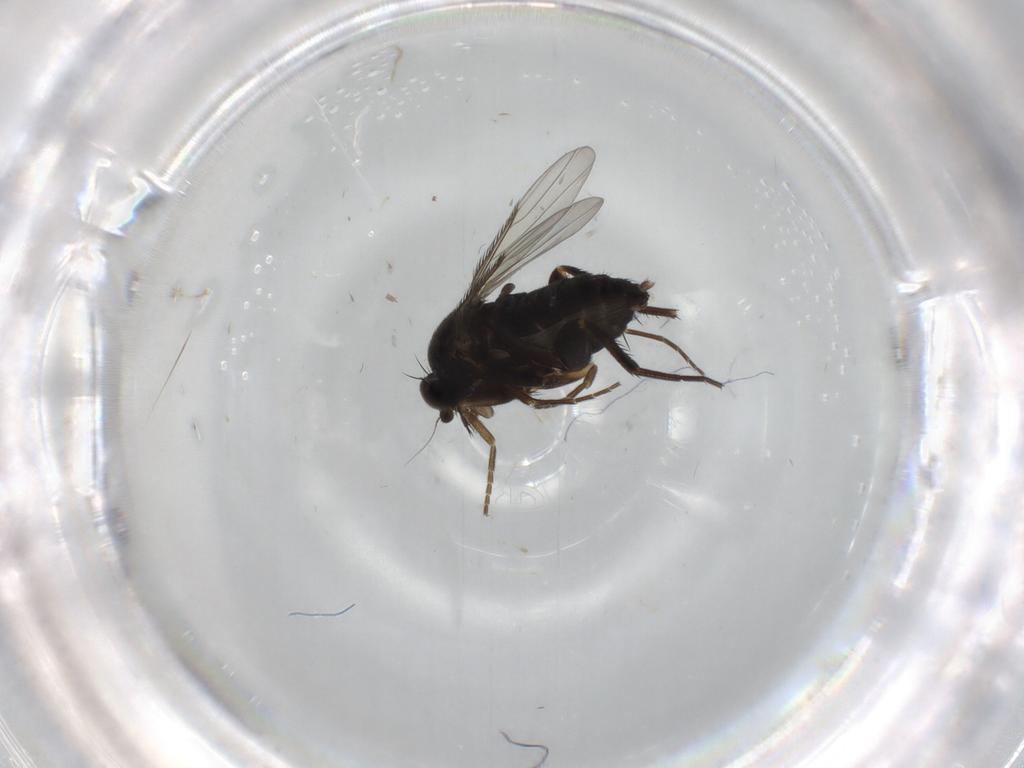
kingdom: Animalia
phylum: Arthropoda
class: Insecta
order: Diptera
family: Phoridae
